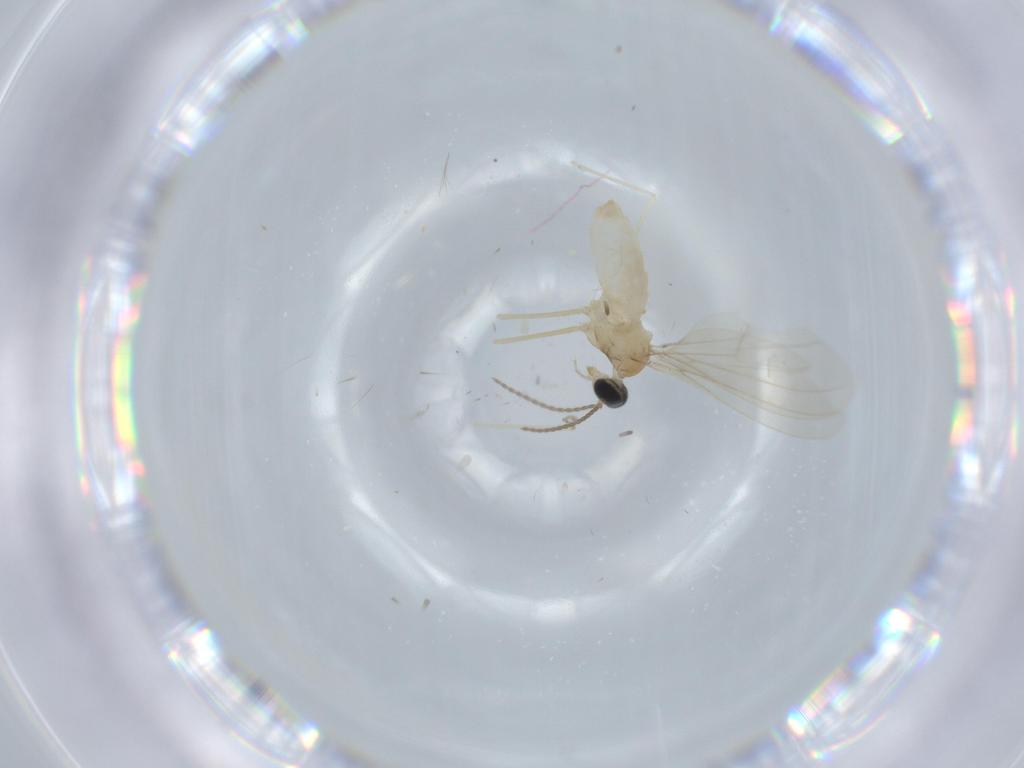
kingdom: Animalia
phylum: Arthropoda
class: Insecta
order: Diptera
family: Cecidomyiidae
